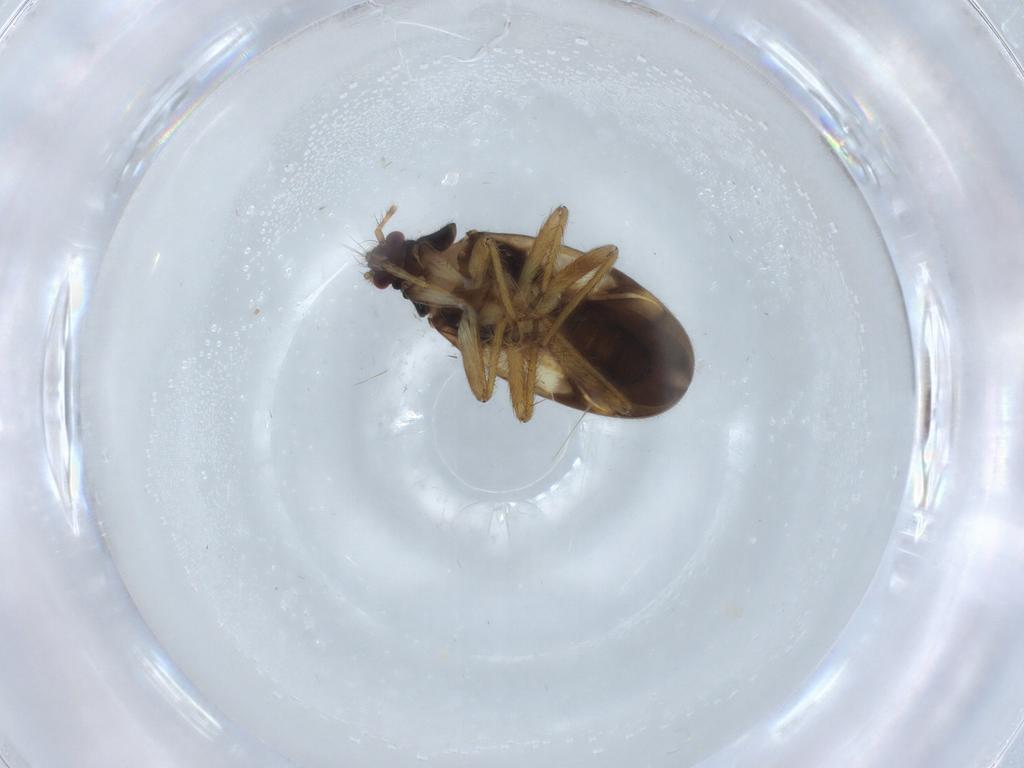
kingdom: Animalia
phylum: Arthropoda
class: Insecta
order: Hemiptera
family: Ceratocombidae
